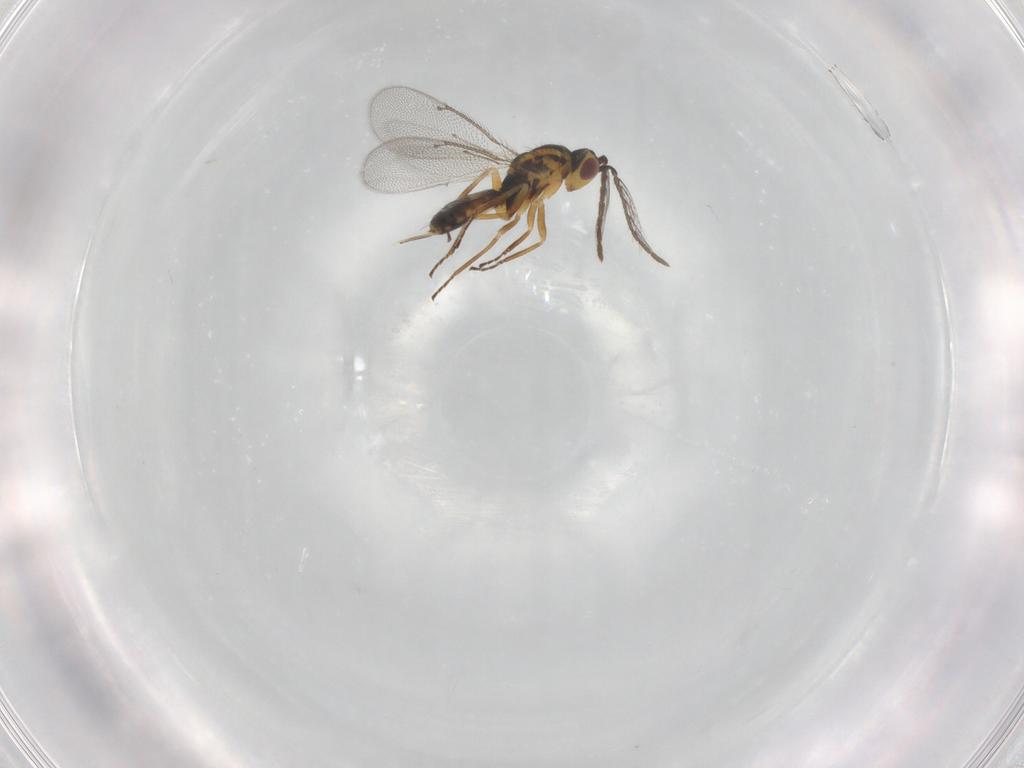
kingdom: Animalia
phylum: Arthropoda
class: Insecta
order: Hymenoptera
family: Eulophidae
